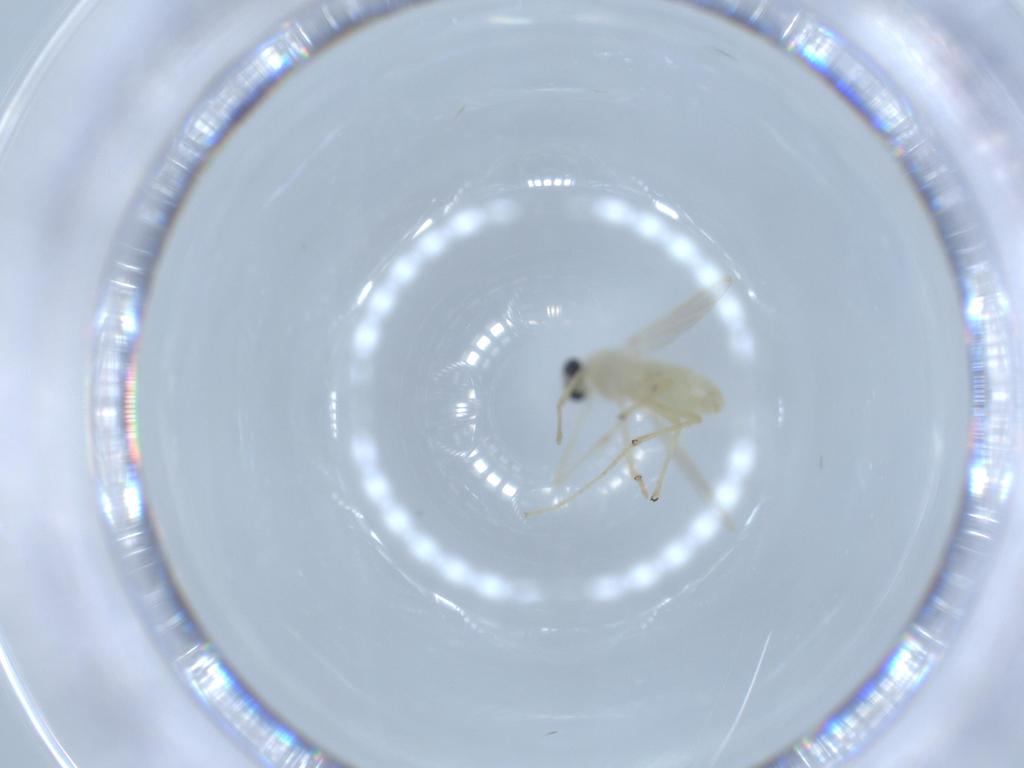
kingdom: Animalia
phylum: Arthropoda
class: Insecta
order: Diptera
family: Chironomidae
